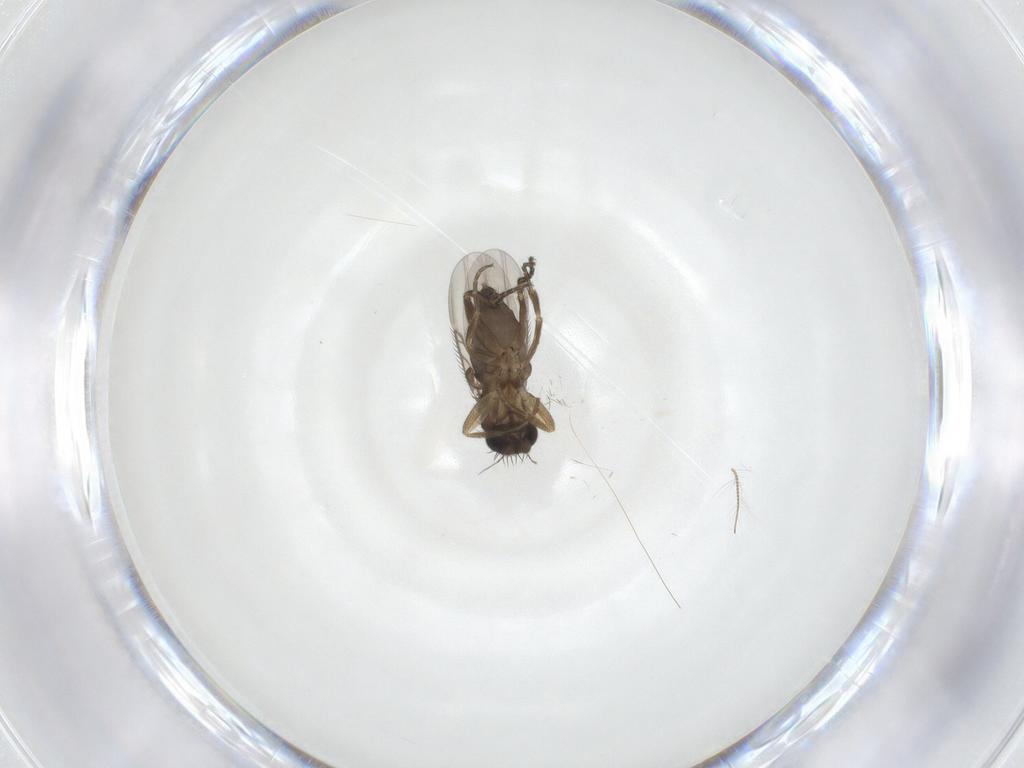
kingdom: Animalia
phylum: Arthropoda
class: Insecta
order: Diptera
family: Phoridae
